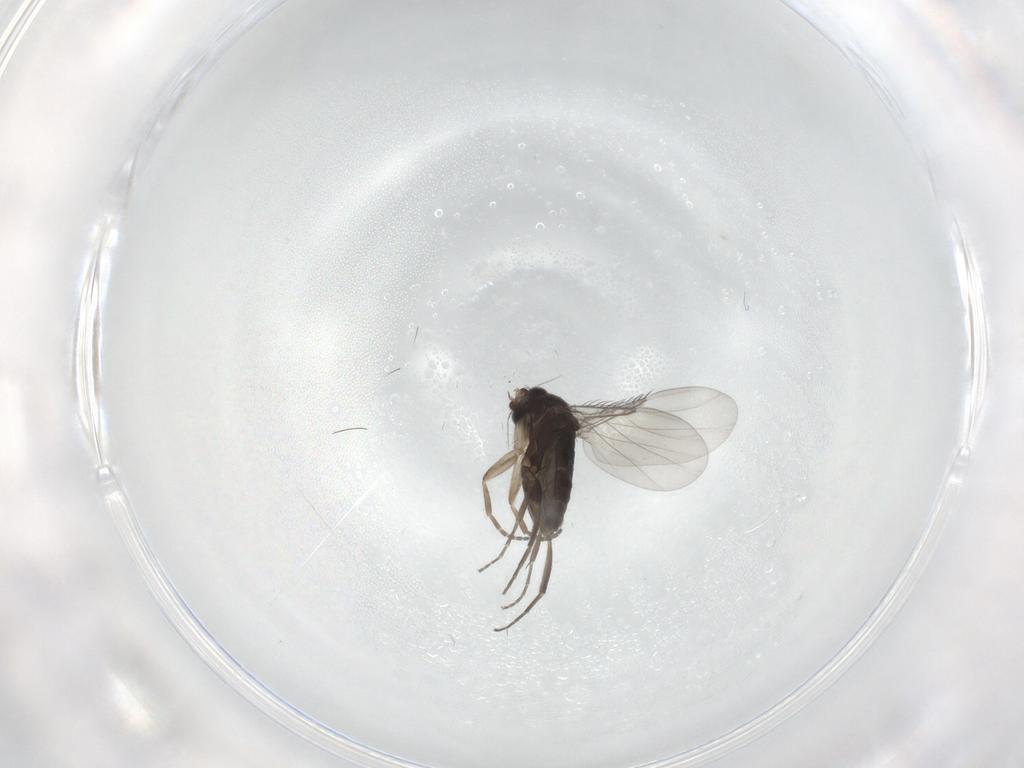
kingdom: Animalia
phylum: Arthropoda
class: Insecta
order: Diptera
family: Phoridae
